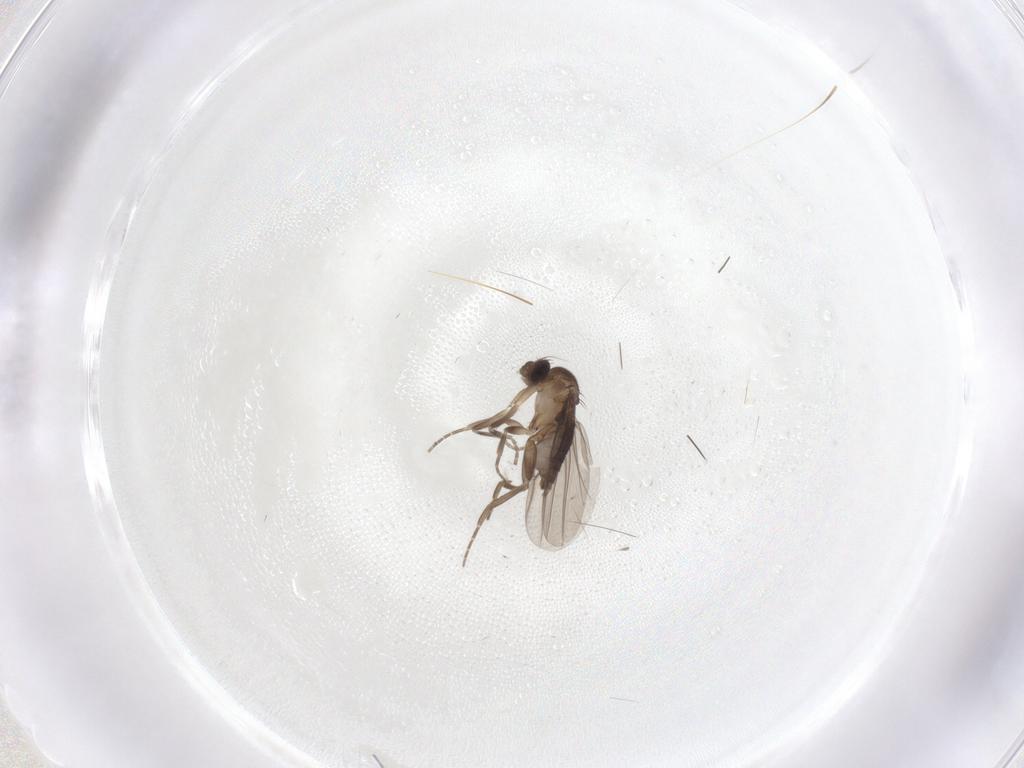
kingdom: Animalia
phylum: Arthropoda
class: Insecta
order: Diptera
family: Phoridae
